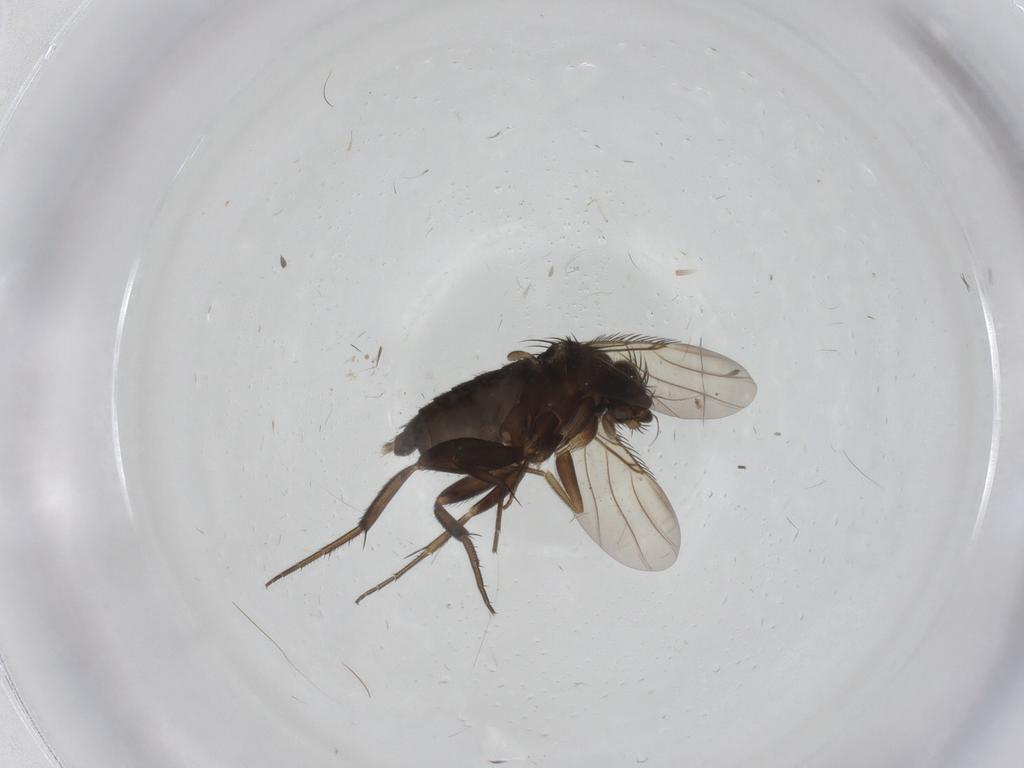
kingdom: Animalia
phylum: Arthropoda
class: Insecta
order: Diptera
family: Phoridae
